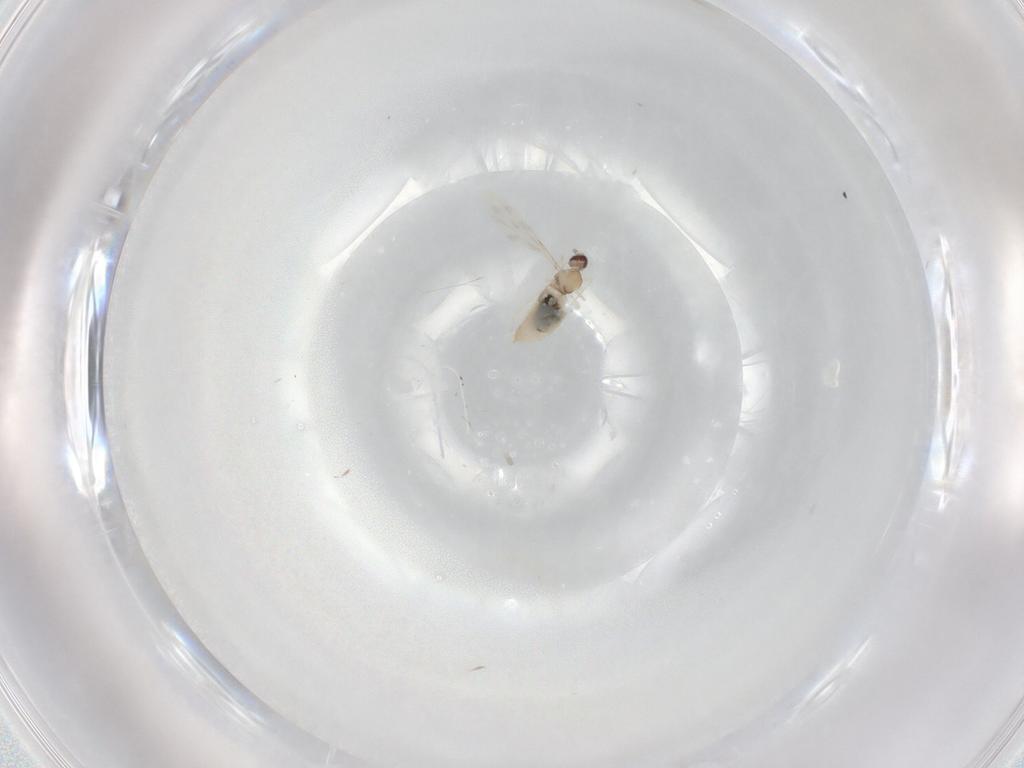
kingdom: Animalia
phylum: Arthropoda
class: Insecta
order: Diptera
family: Cecidomyiidae
